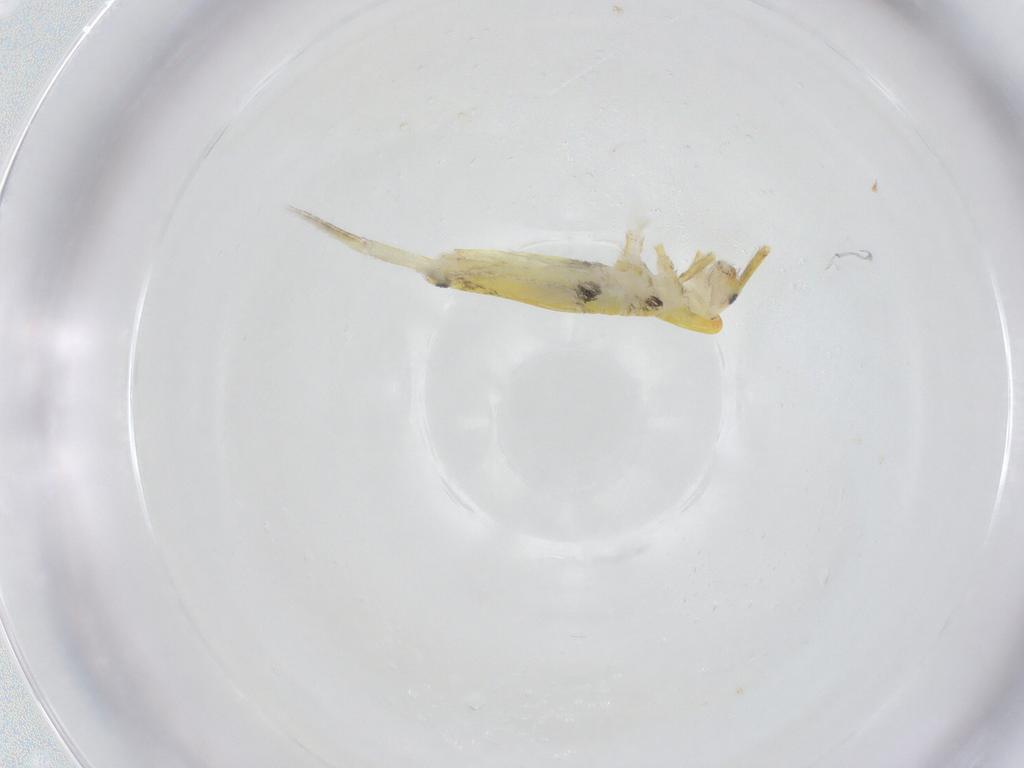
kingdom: Animalia
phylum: Arthropoda
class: Collembola
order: Entomobryomorpha
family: Entomobryidae
